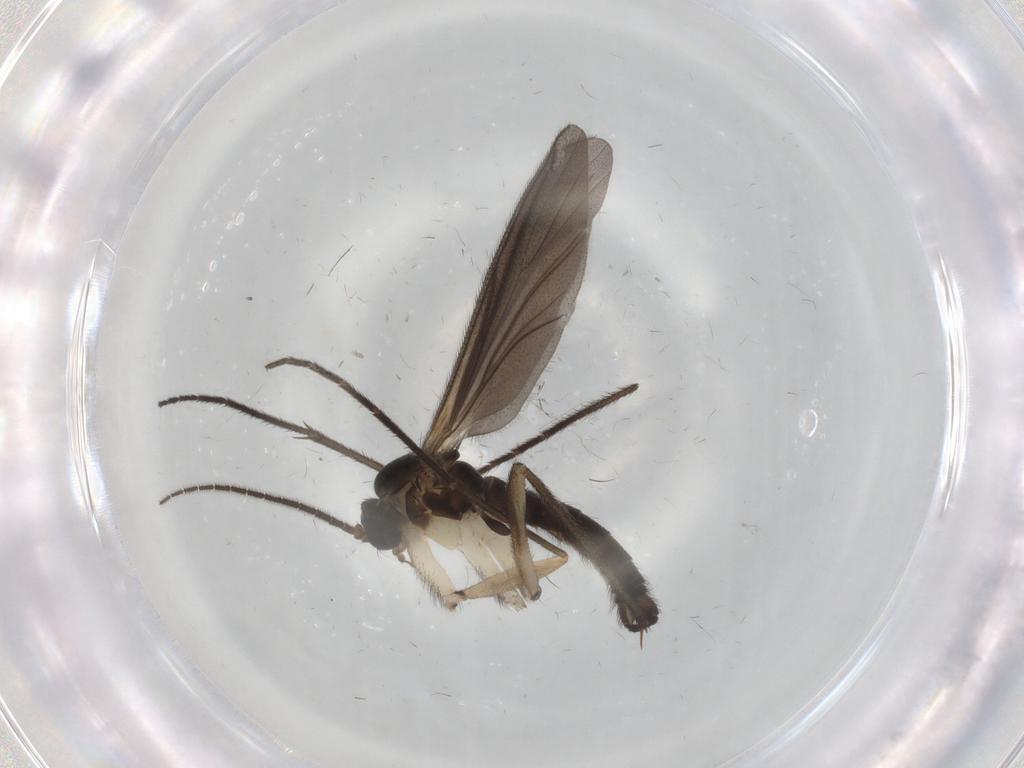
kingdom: Animalia
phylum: Arthropoda
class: Insecta
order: Diptera
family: Sciaridae
